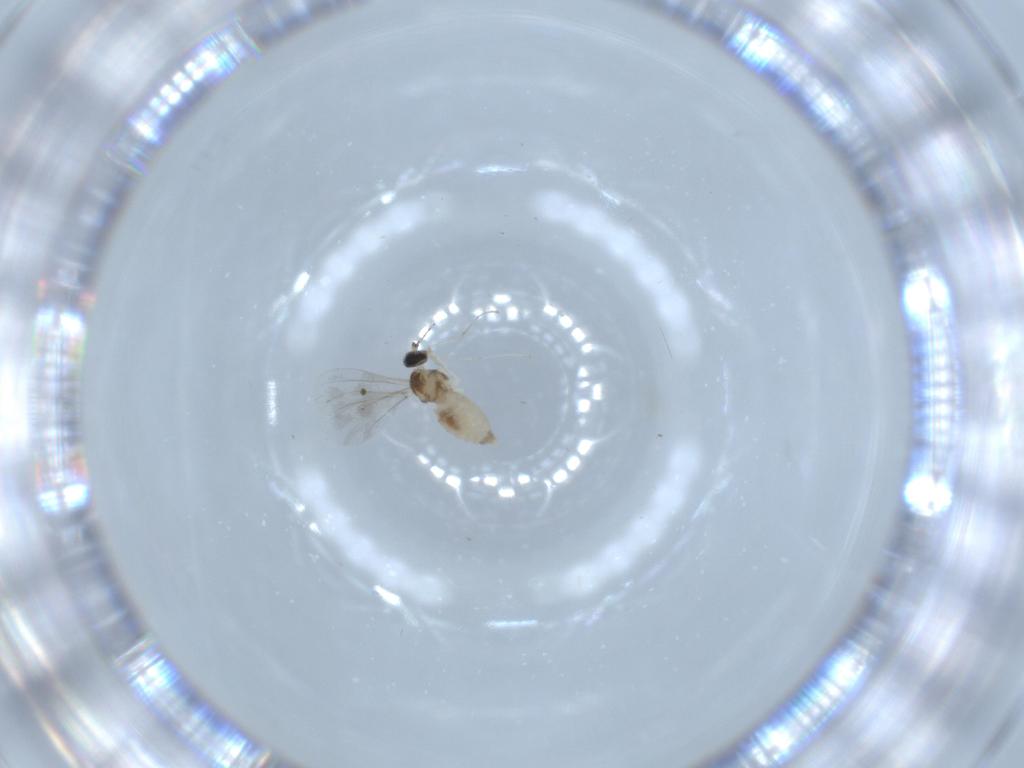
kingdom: Animalia
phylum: Arthropoda
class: Insecta
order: Diptera
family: Cecidomyiidae
